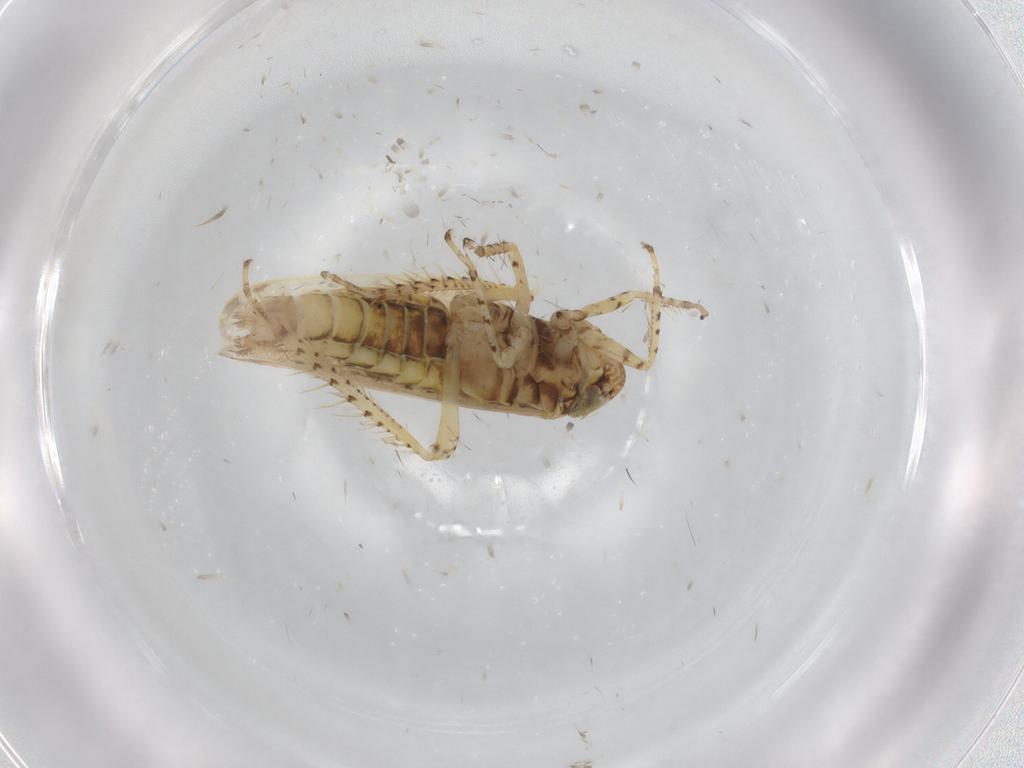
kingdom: Animalia
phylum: Arthropoda
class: Insecta
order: Hemiptera
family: Cicadellidae
